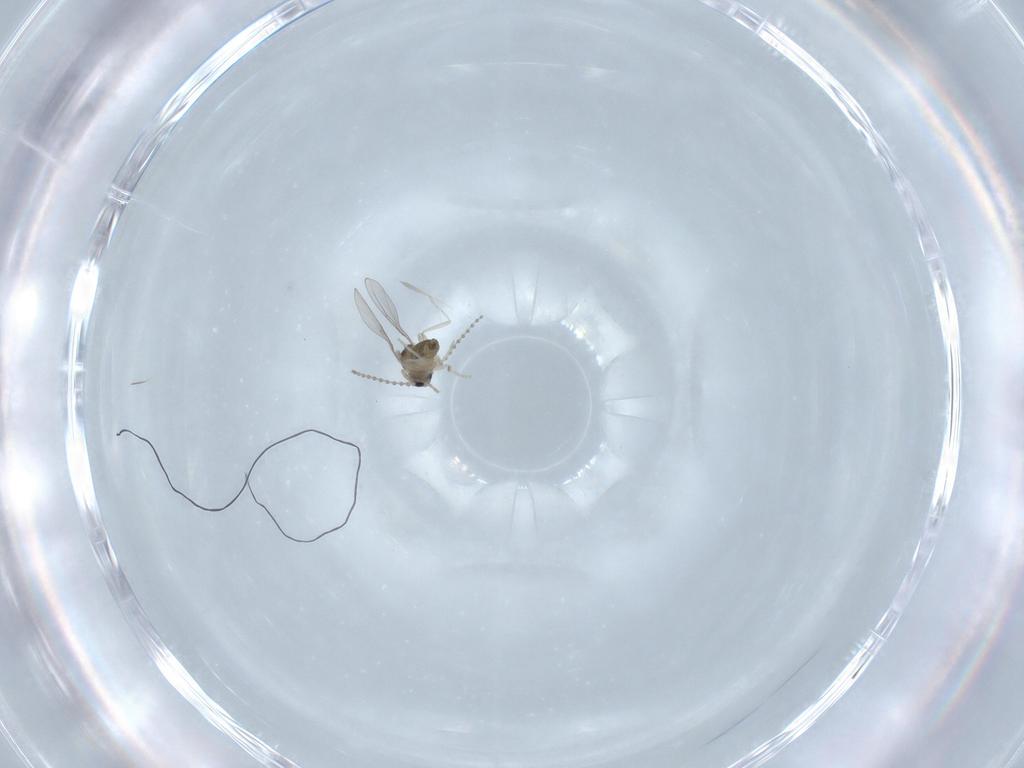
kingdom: Animalia
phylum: Arthropoda
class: Insecta
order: Diptera
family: Cecidomyiidae
